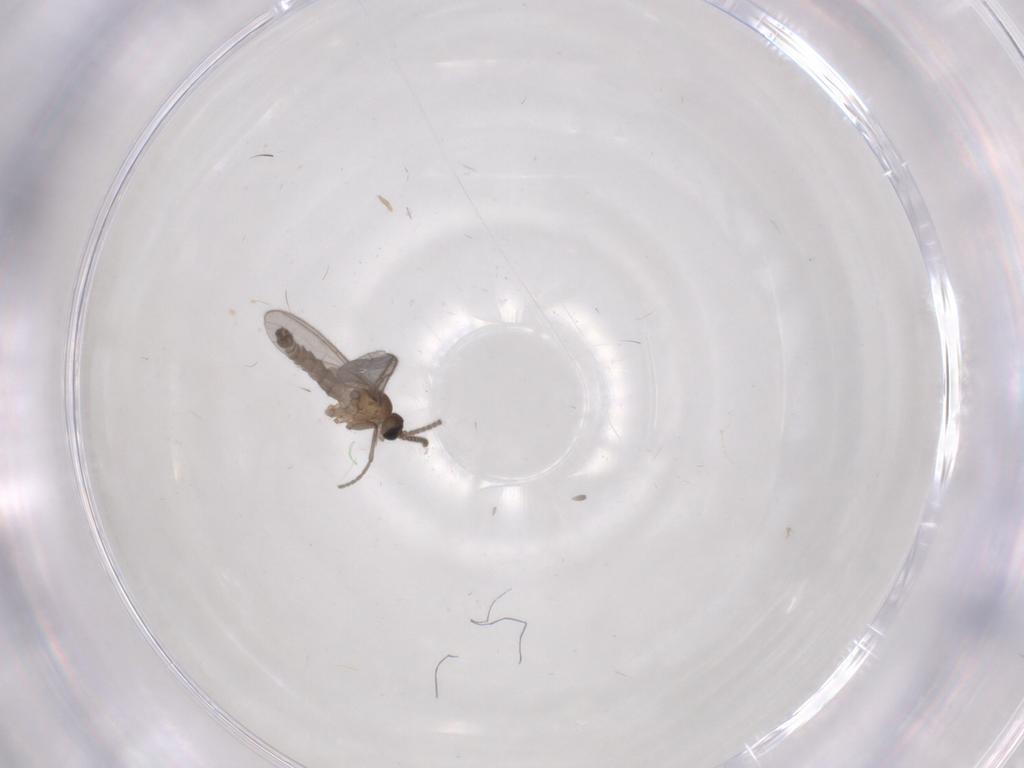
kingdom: Animalia
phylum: Arthropoda
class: Insecta
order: Diptera
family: Sciaridae
